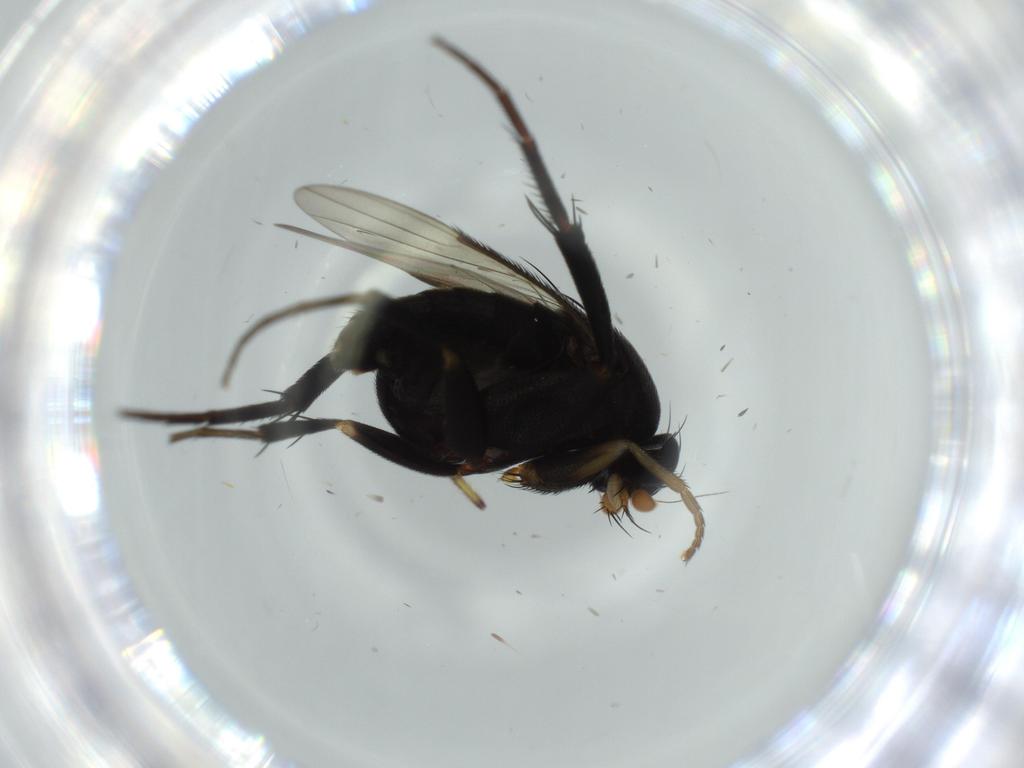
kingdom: Animalia
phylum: Arthropoda
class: Insecta
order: Diptera
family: Phoridae
